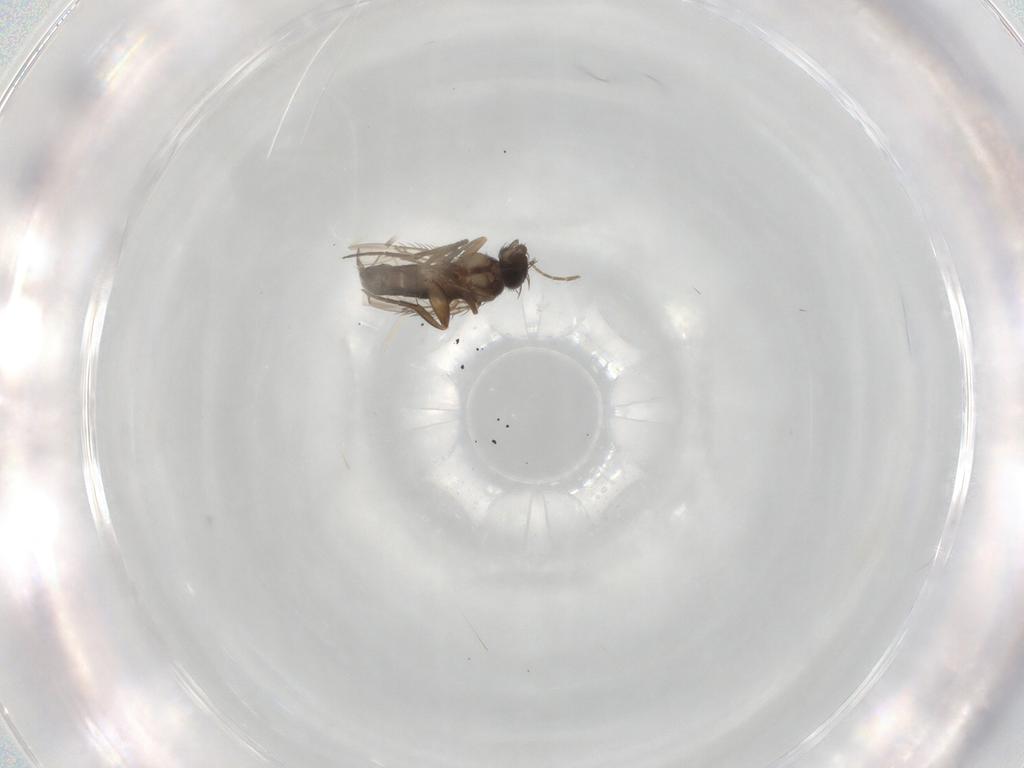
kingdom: Animalia
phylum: Arthropoda
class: Insecta
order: Diptera
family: Phoridae
